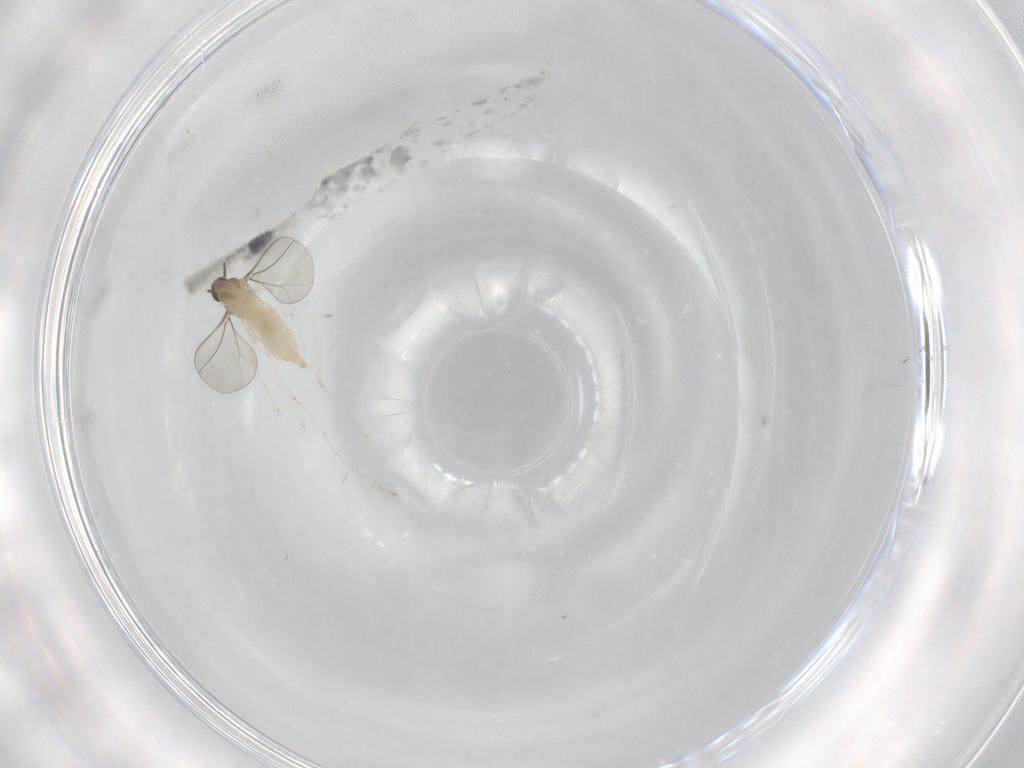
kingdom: Animalia
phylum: Arthropoda
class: Insecta
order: Diptera
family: Cecidomyiidae
